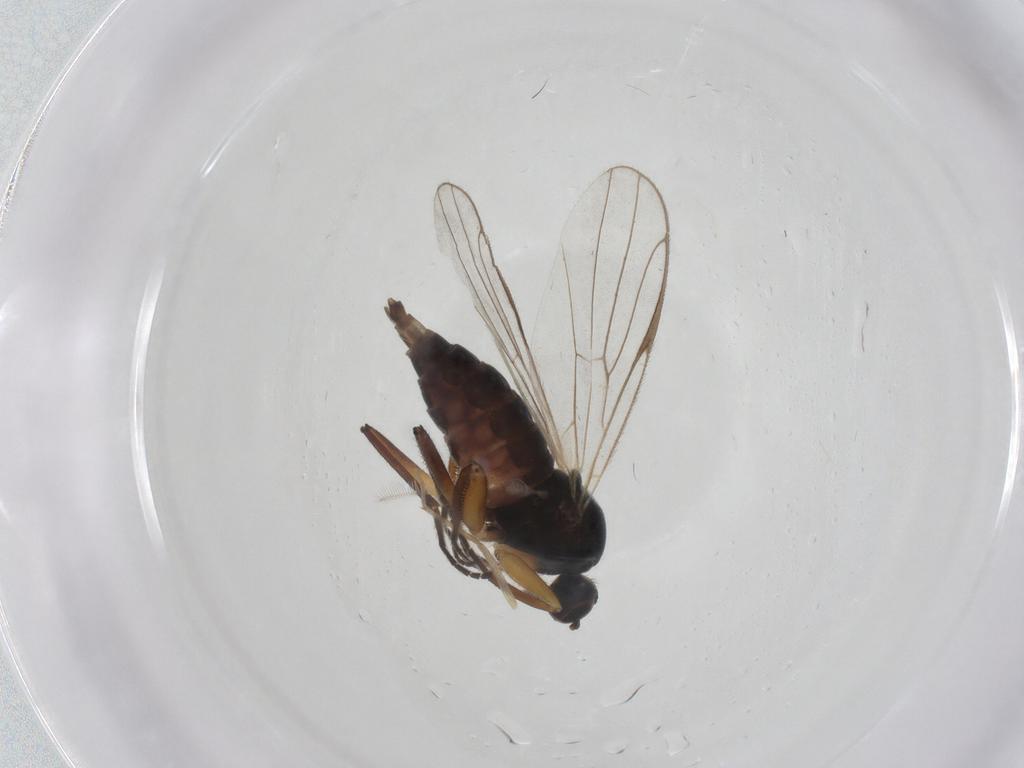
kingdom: Animalia
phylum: Arthropoda
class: Insecta
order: Diptera
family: Hybotidae
